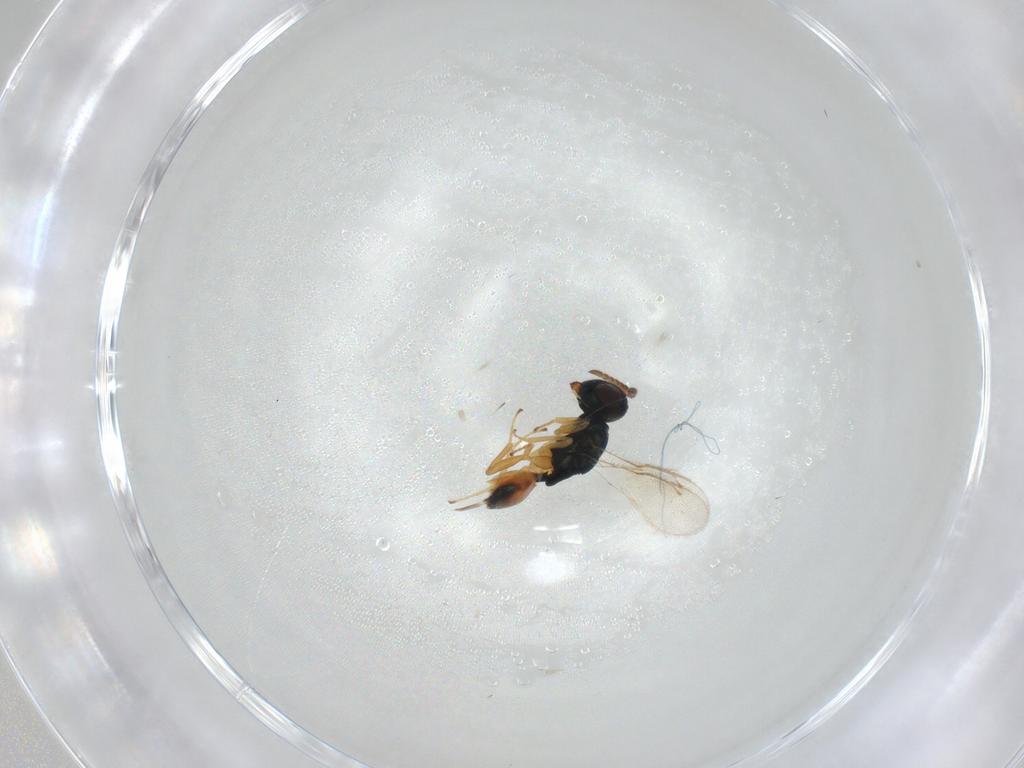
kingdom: Animalia
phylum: Arthropoda
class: Insecta
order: Hymenoptera
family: Pteromalidae
